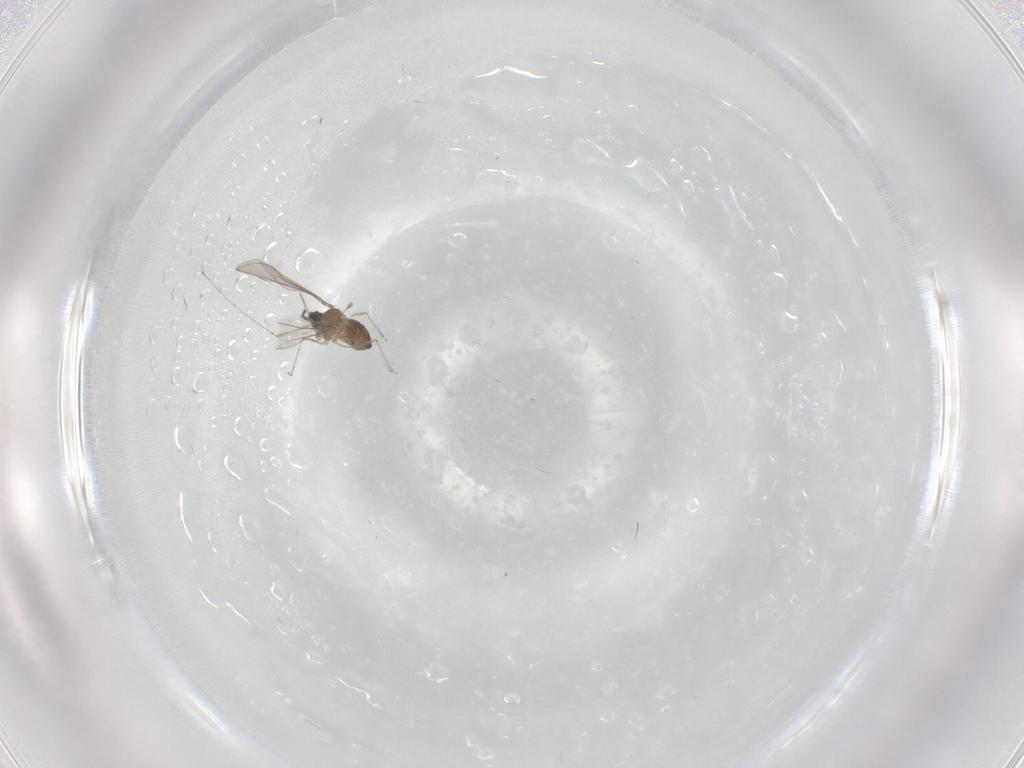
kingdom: Animalia
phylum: Arthropoda
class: Insecta
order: Diptera
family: Cecidomyiidae
